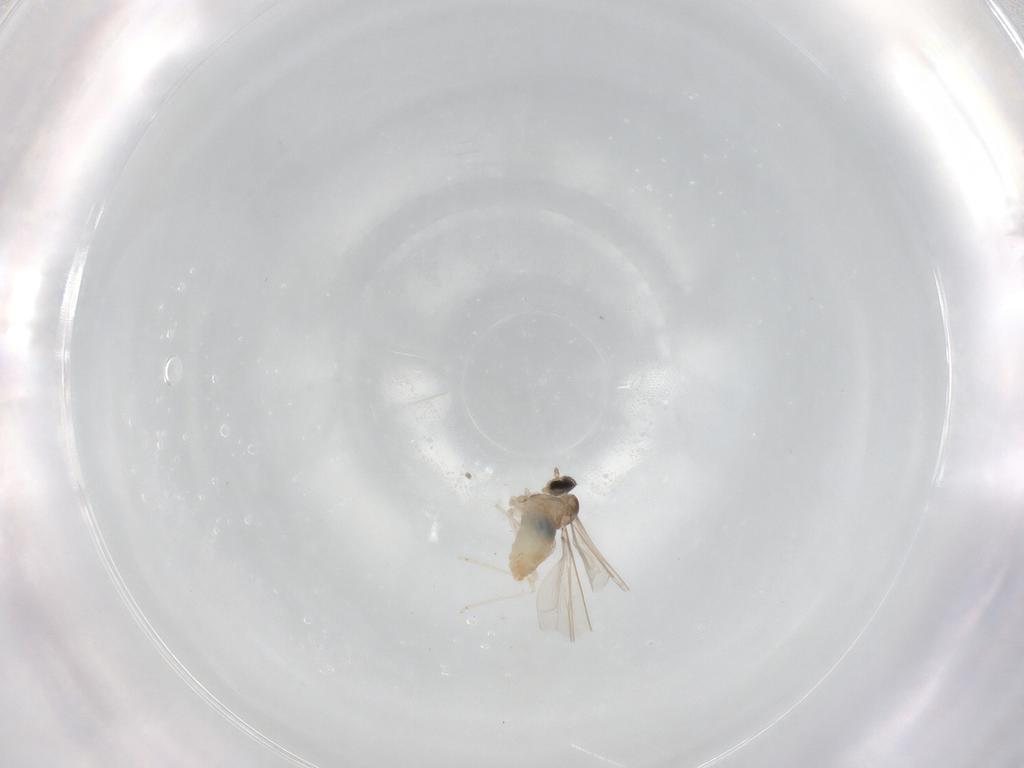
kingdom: Animalia
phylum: Arthropoda
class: Insecta
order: Diptera
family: Cecidomyiidae
